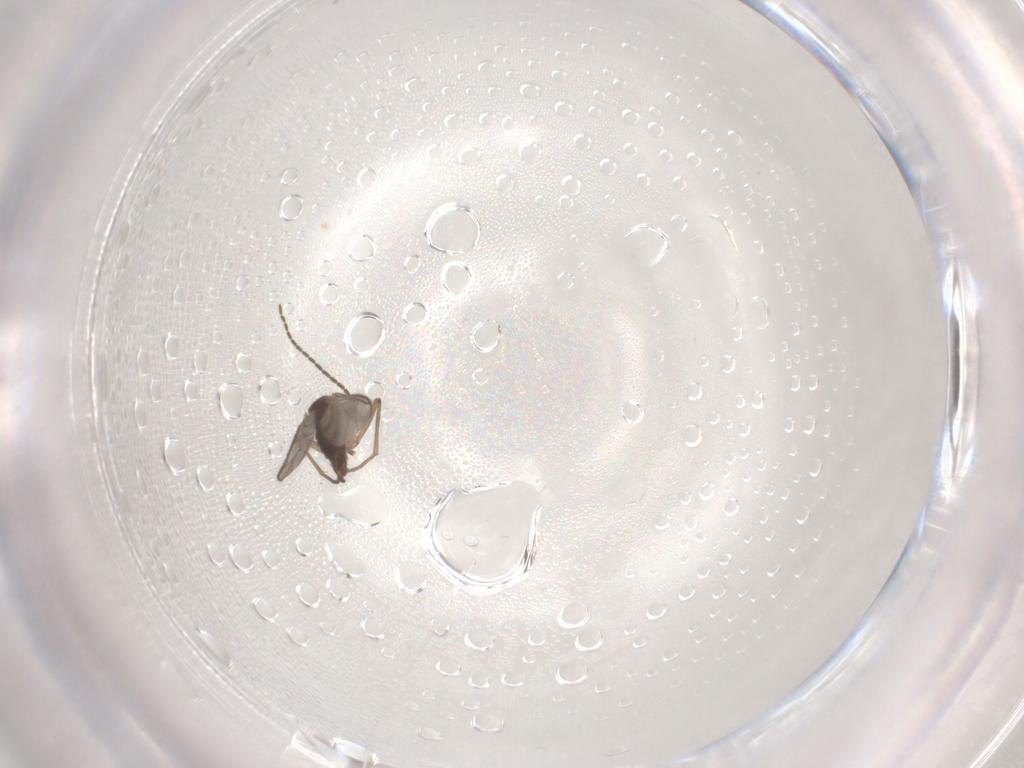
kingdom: Animalia
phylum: Arthropoda
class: Insecta
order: Diptera
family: Sciaridae
